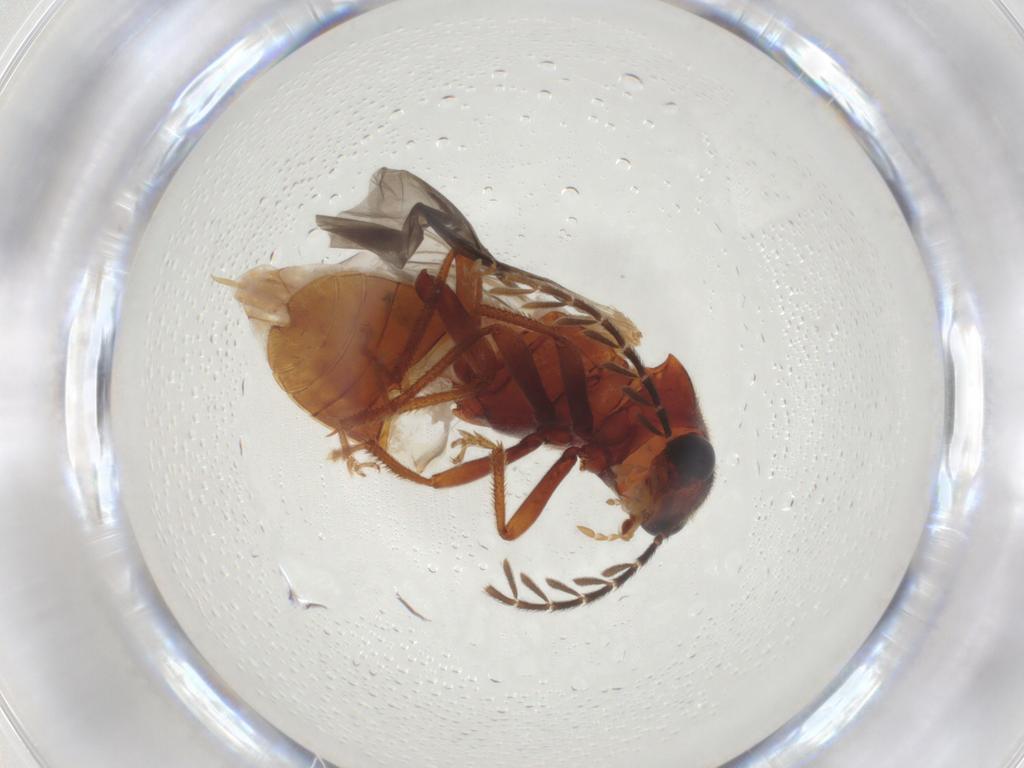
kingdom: Animalia
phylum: Arthropoda
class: Insecta
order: Coleoptera
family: Ptilodactylidae
